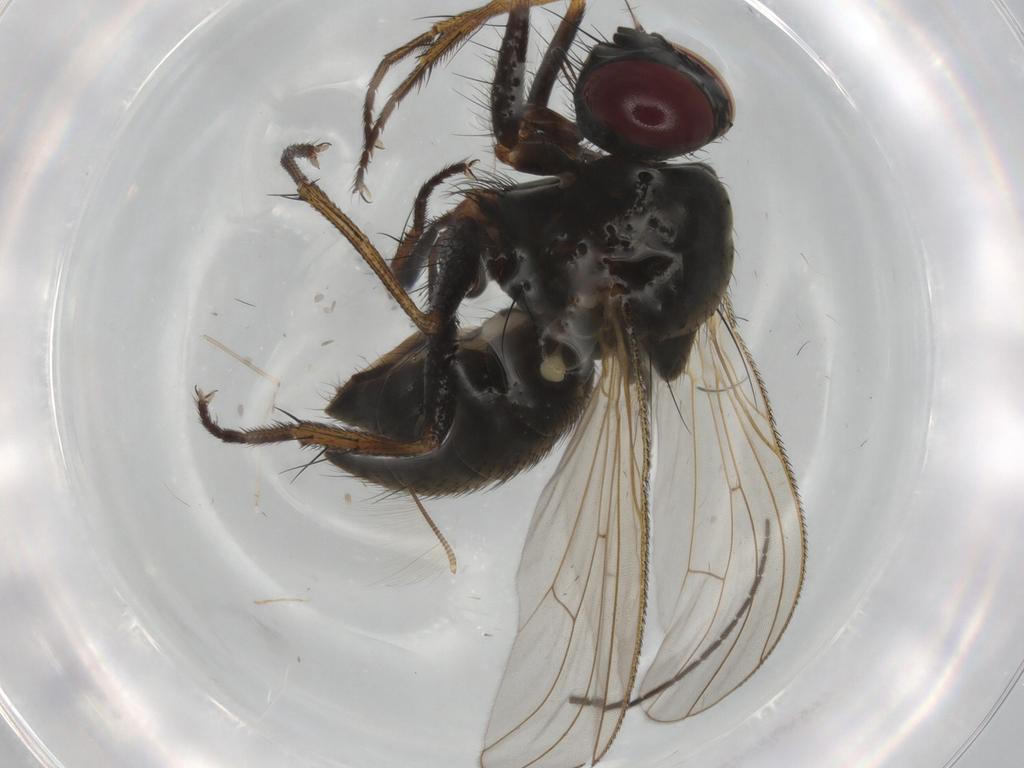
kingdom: Animalia
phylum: Arthropoda
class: Insecta
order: Diptera
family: Chironomidae
